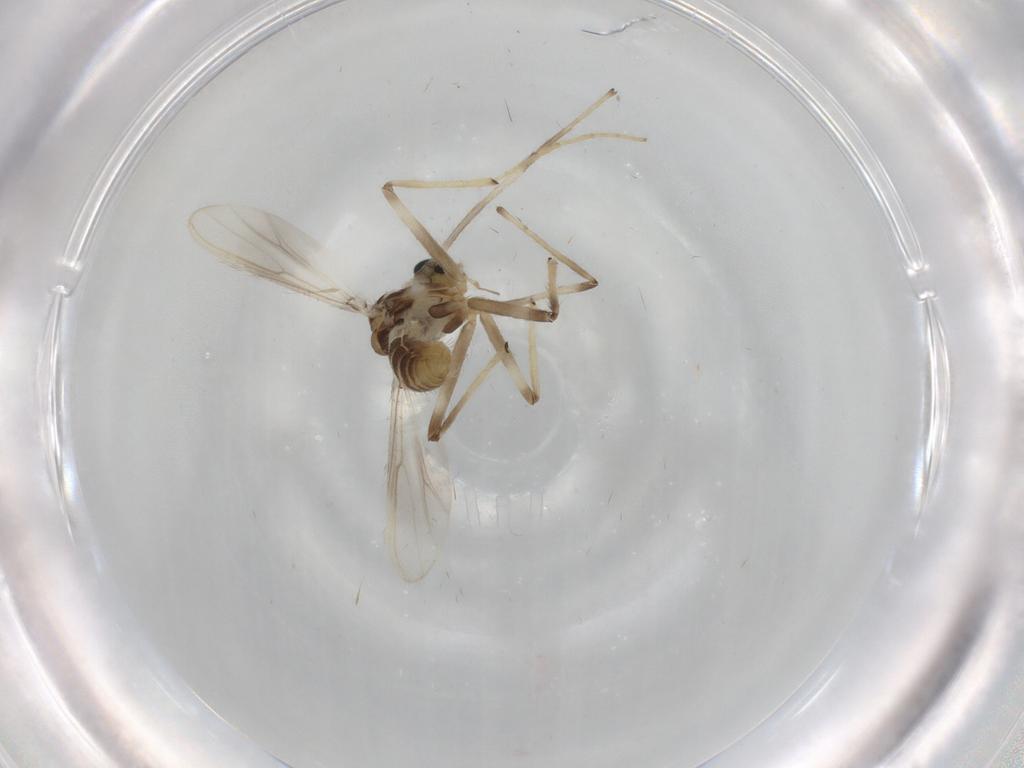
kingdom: Animalia
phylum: Arthropoda
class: Insecta
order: Diptera
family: Cecidomyiidae
